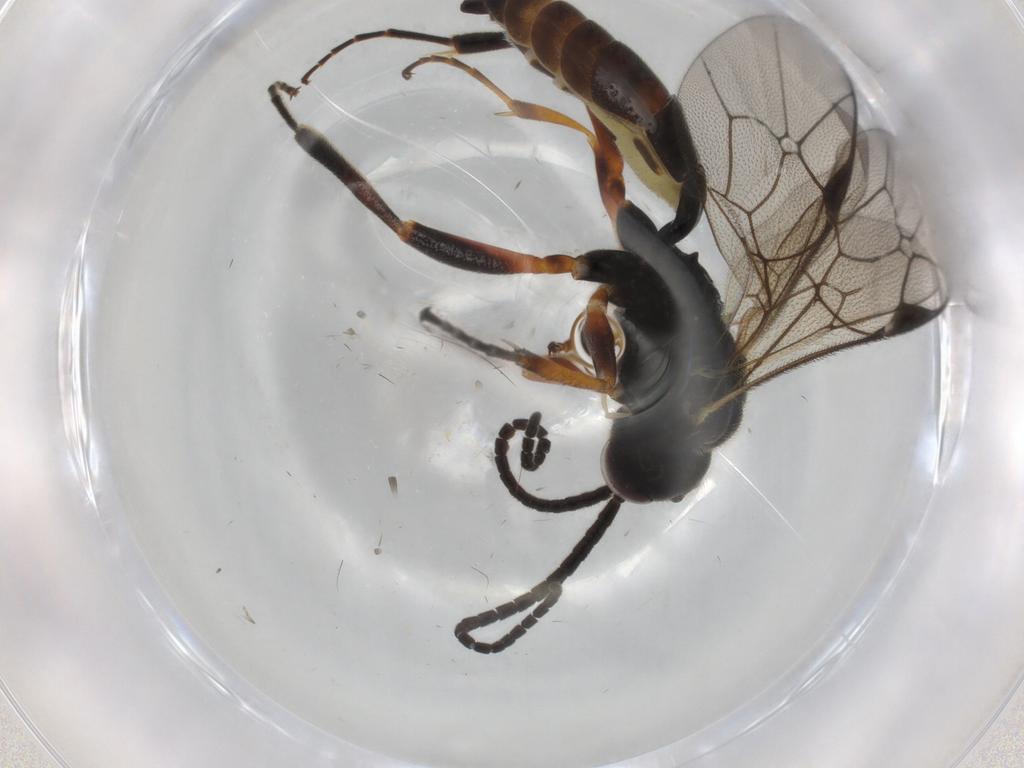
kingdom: Animalia
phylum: Arthropoda
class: Insecta
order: Hymenoptera
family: Ichneumonidae
